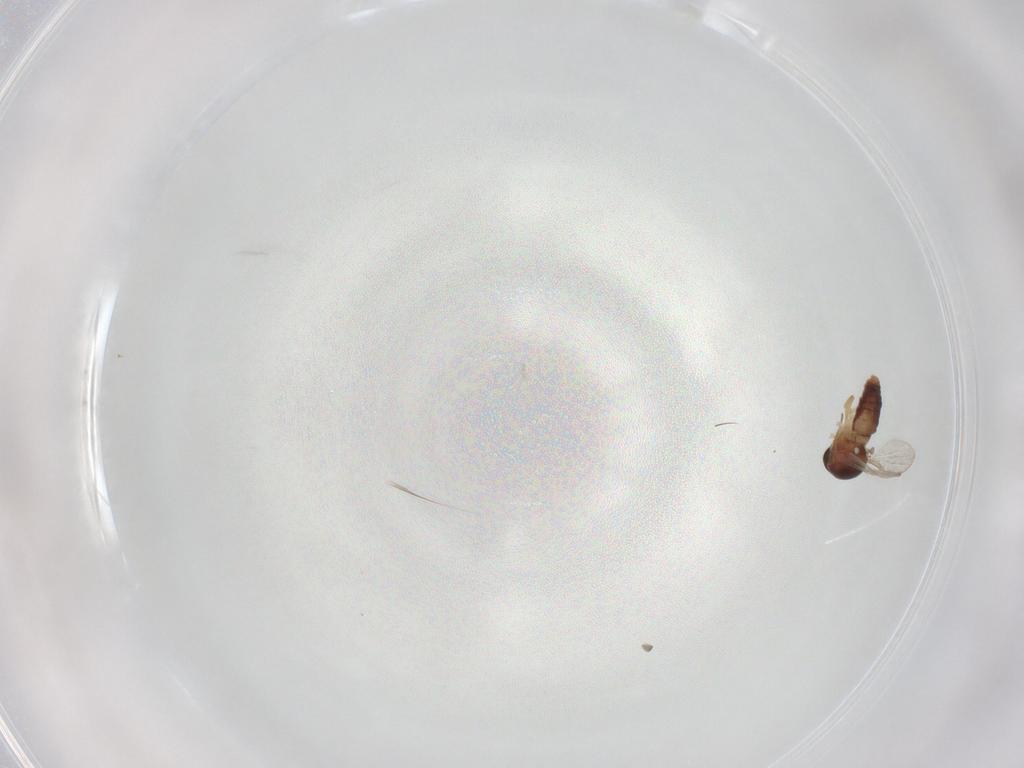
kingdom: Animalia
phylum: Arthropoda
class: Insecta
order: Diptera
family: Ceratopogonidae
